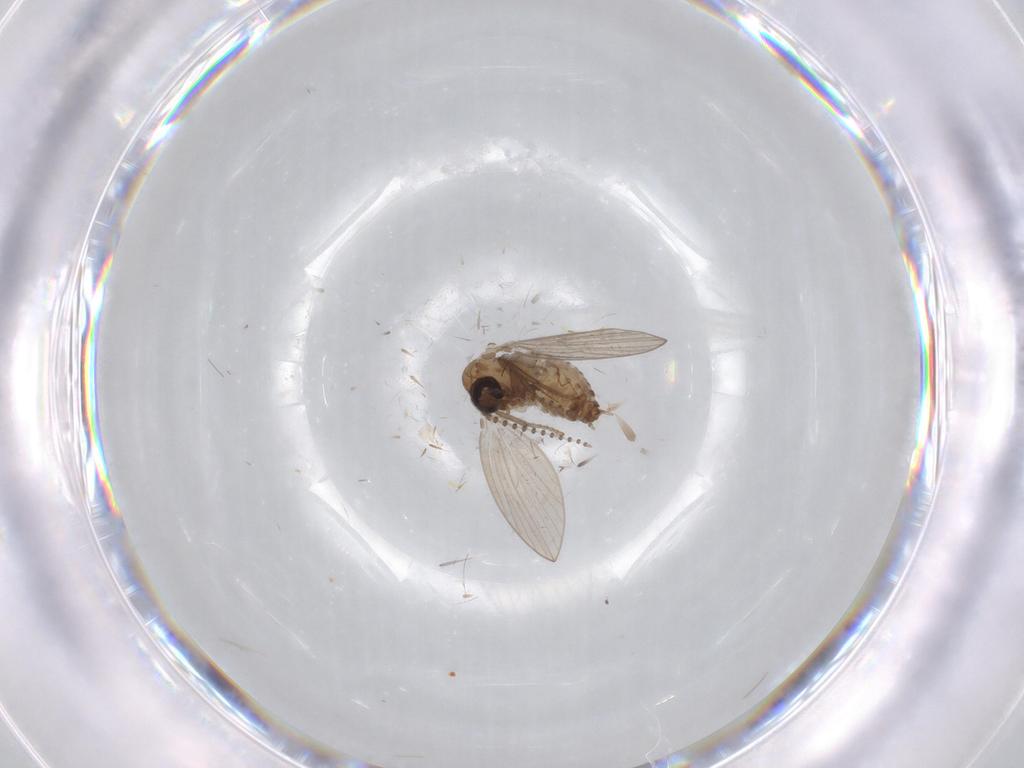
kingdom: Animalia
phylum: Arthropoda
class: Insecta
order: Diptera
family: Psychodidae
